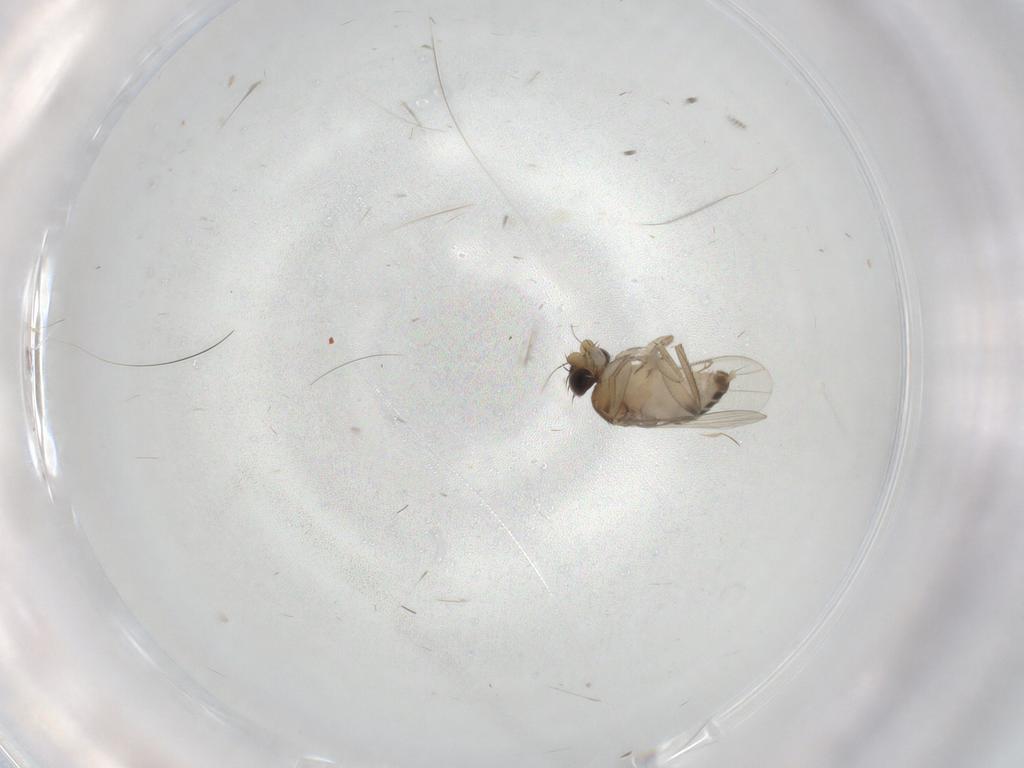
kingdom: Animalia
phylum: Arthropoda
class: Insecta
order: Diptera
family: Phoridae
